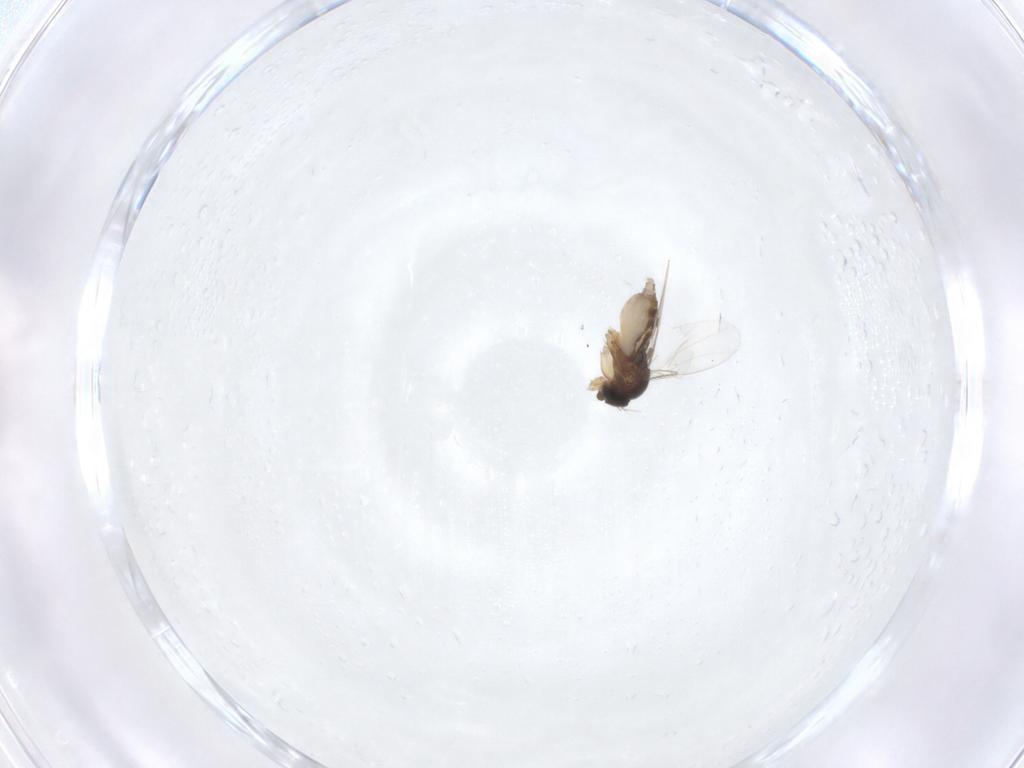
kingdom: Animalia
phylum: Arthropoda
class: Insecta
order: Diptera
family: Phoridae
